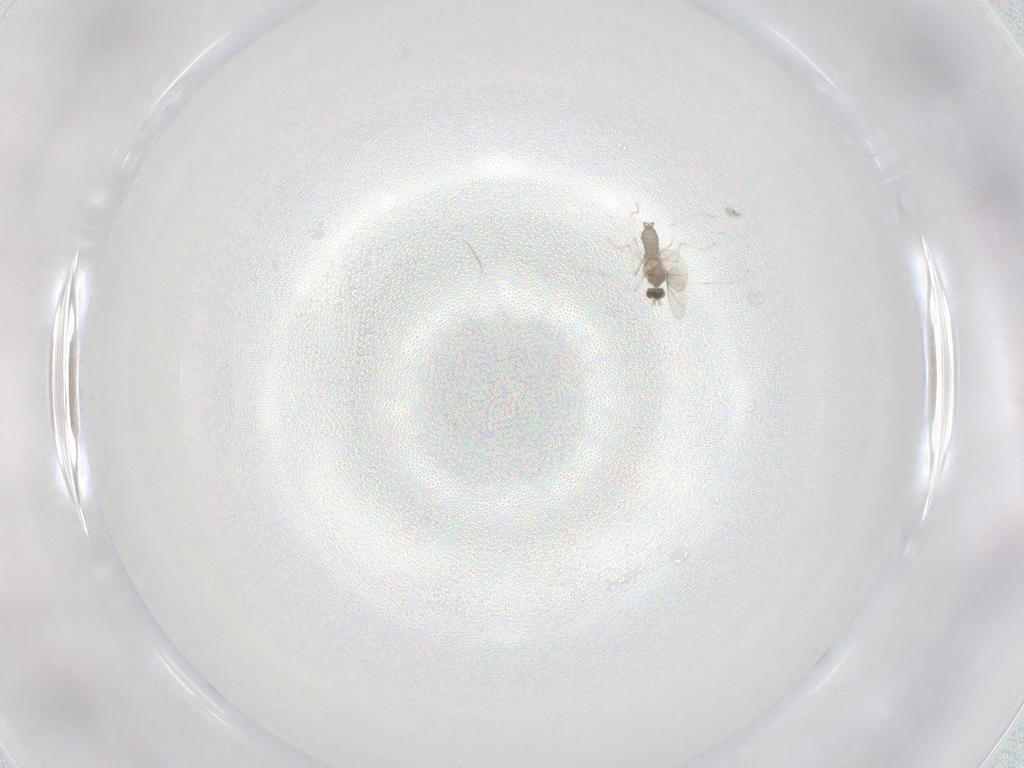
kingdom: Animalia
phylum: Arthropoda
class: Insecta
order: Diptera
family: Cecidomyiidae
